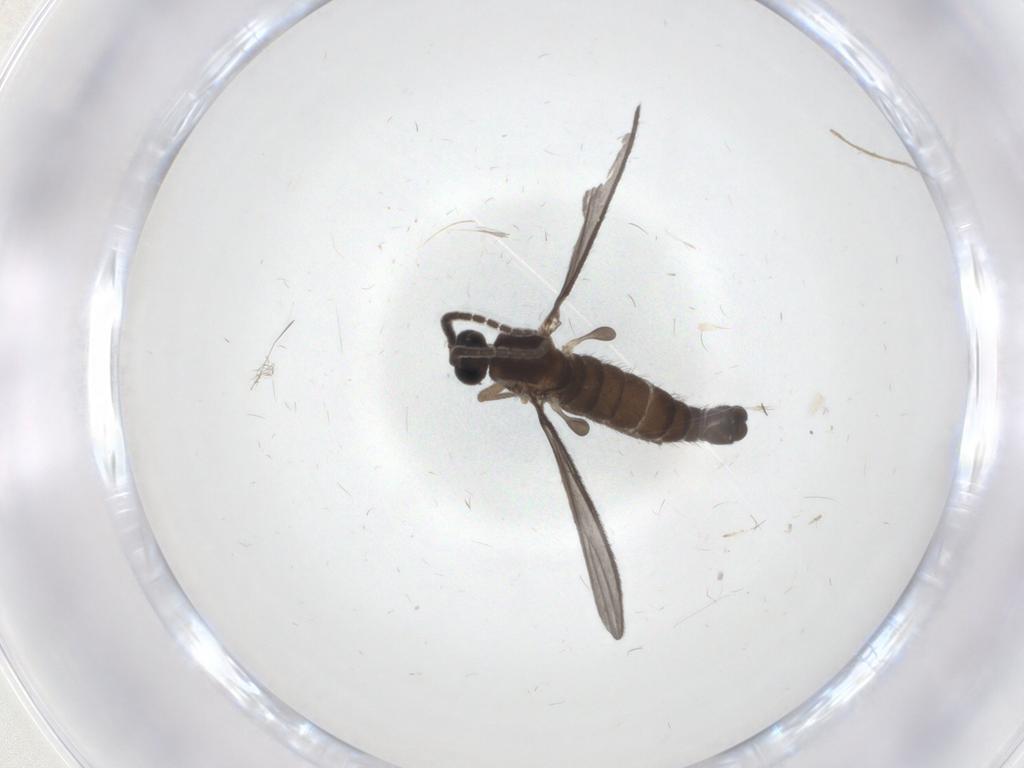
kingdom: Animalia
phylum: Arthropoda
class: Insecta
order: Diptera
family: Sciaridae
